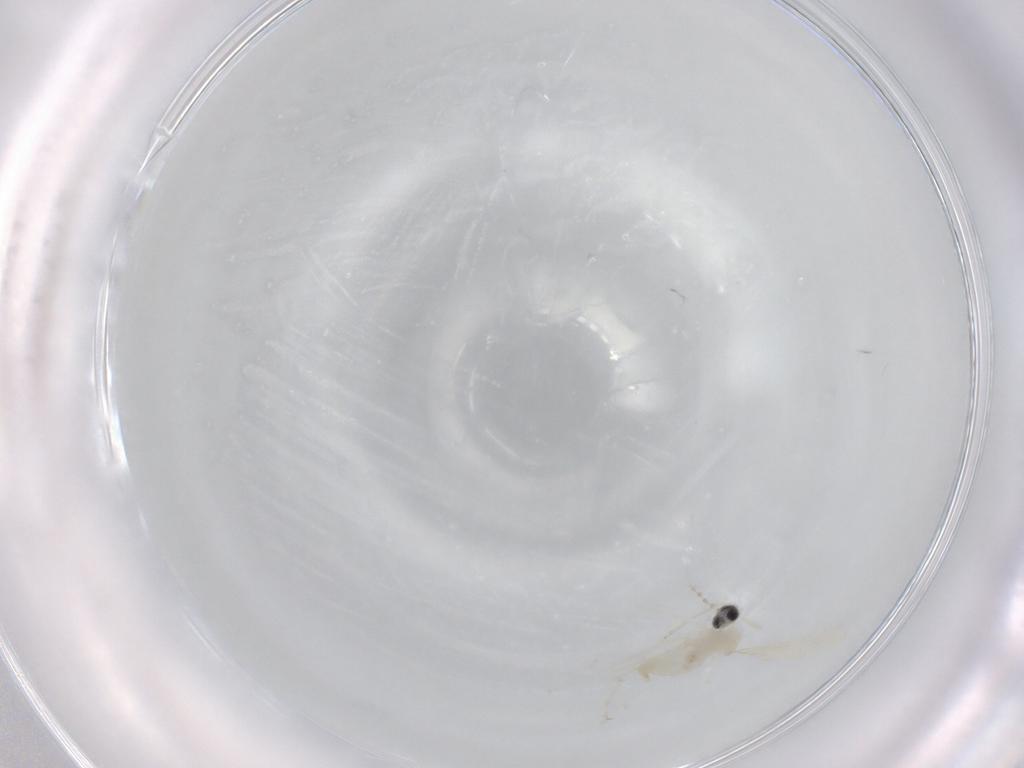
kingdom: Animalia
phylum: Arthropoda
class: Insecta
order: Diptera
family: Cecidomyiidae
